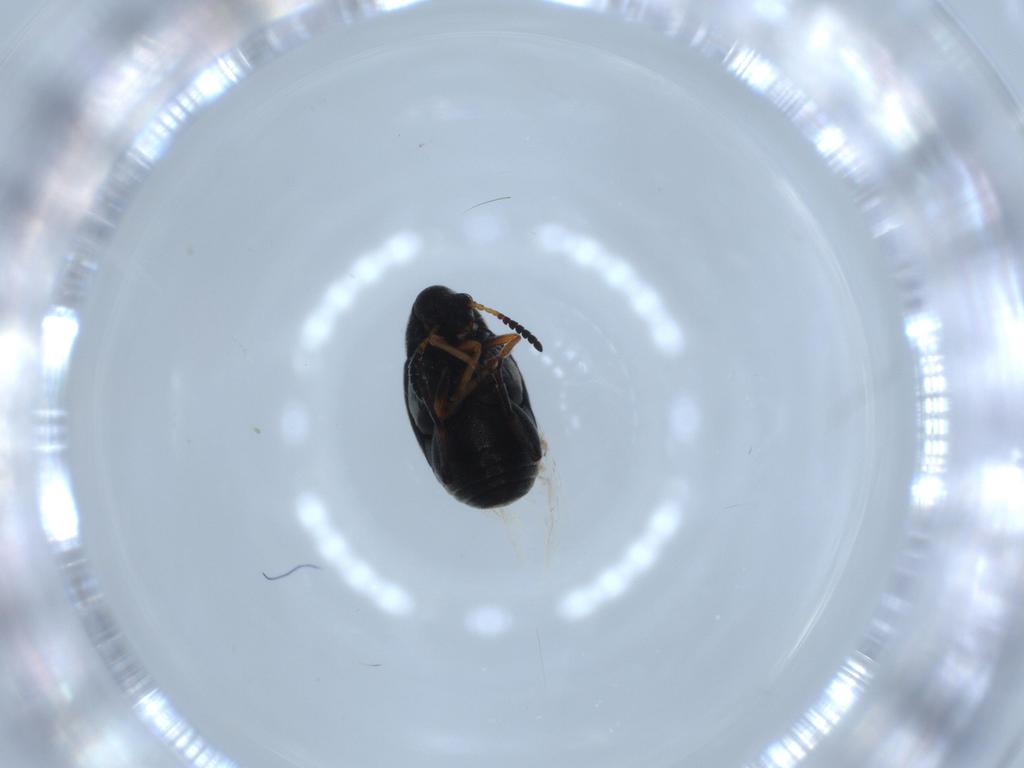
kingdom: Animalia
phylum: Arthropoda
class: Insecta
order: Coleoptera
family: Chrysomelidae
